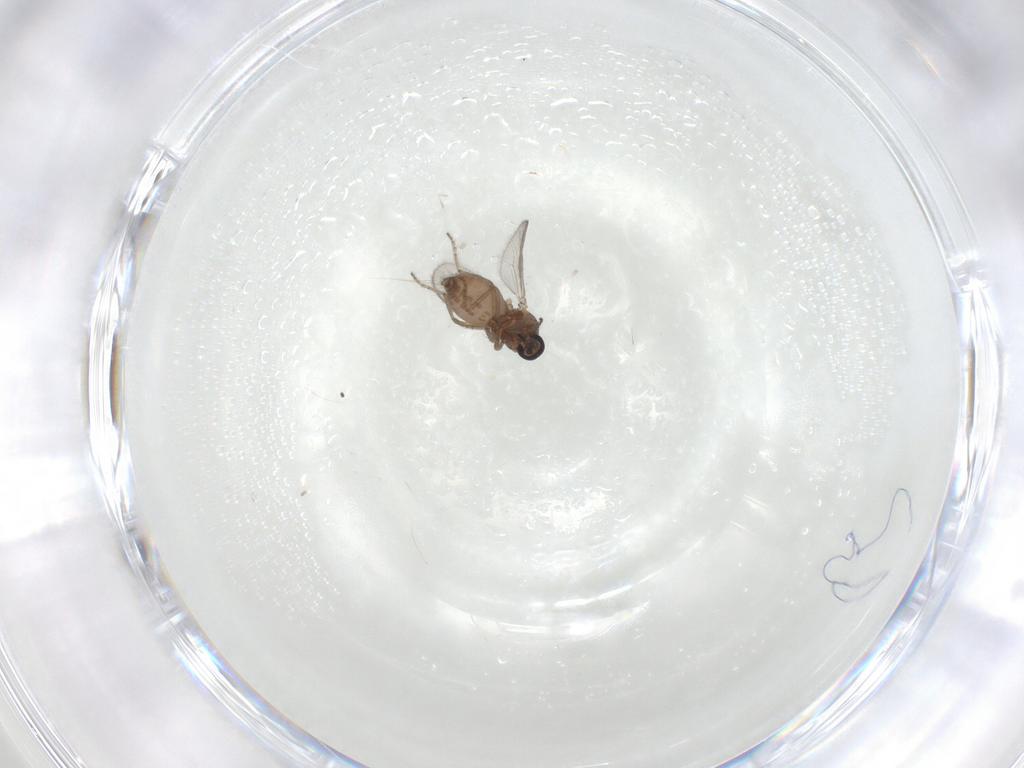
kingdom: Animalia
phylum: Arthropoda
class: Insecta
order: Diptera
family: Ceratopogonidae
